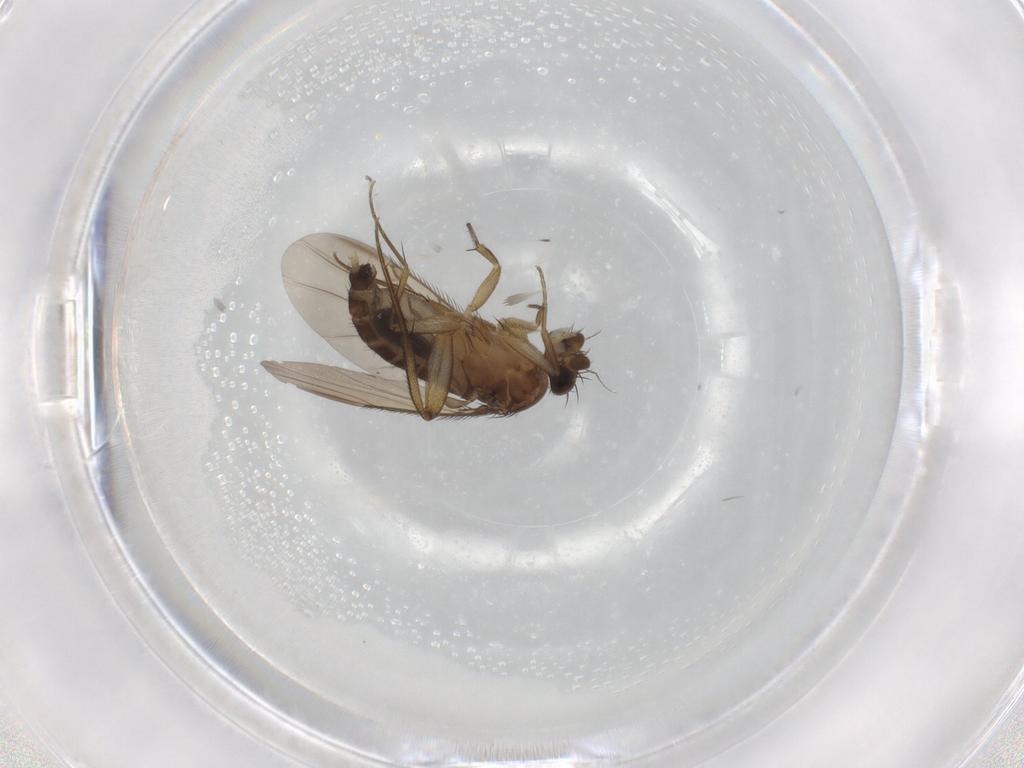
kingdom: Animalia
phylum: Arthropoda
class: Insecta
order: Diptera
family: Phoridae
